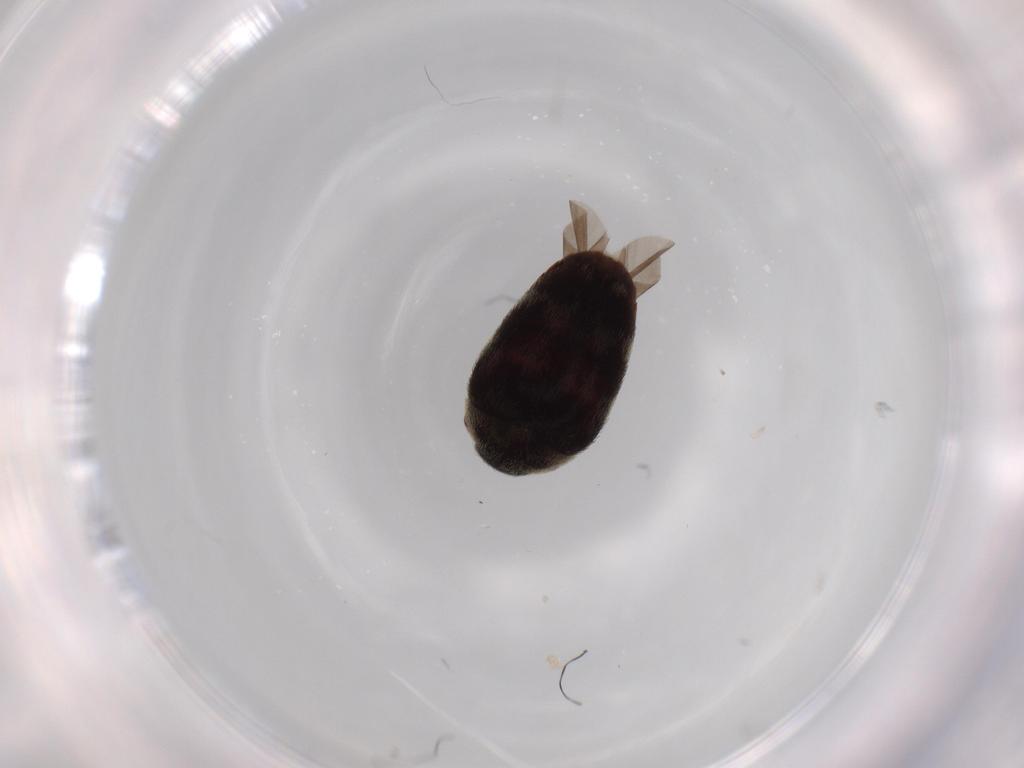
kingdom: Animalia
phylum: Arthropoda
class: Insecta
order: Coleoptera
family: Dermestidae
